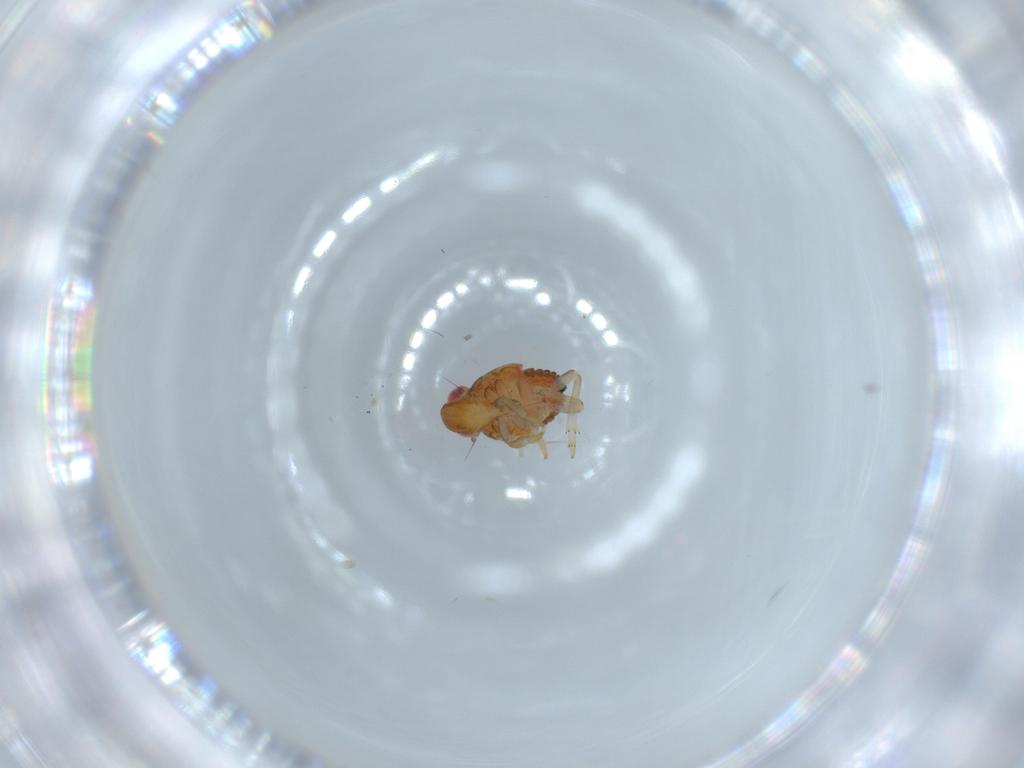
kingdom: Animalia
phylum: Arthropoda
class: Insecta
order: Hemiptera
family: Issidae
